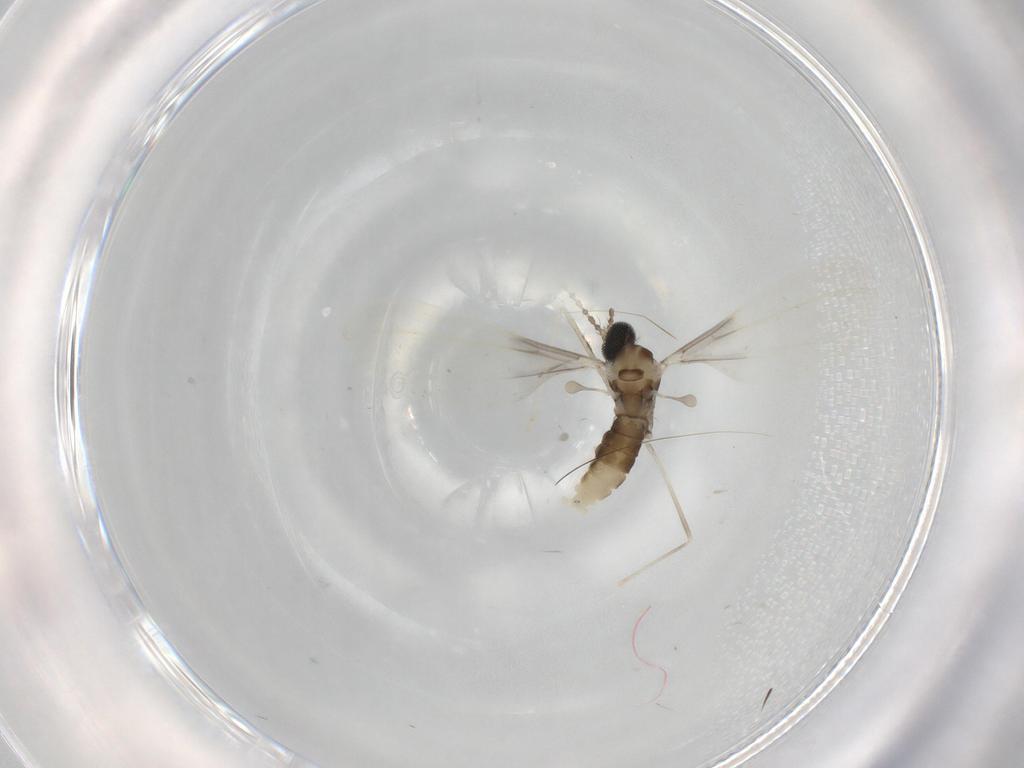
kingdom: Animalia
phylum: Arthropoda
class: Insecta
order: Diptera
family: Cecidomyiidae
